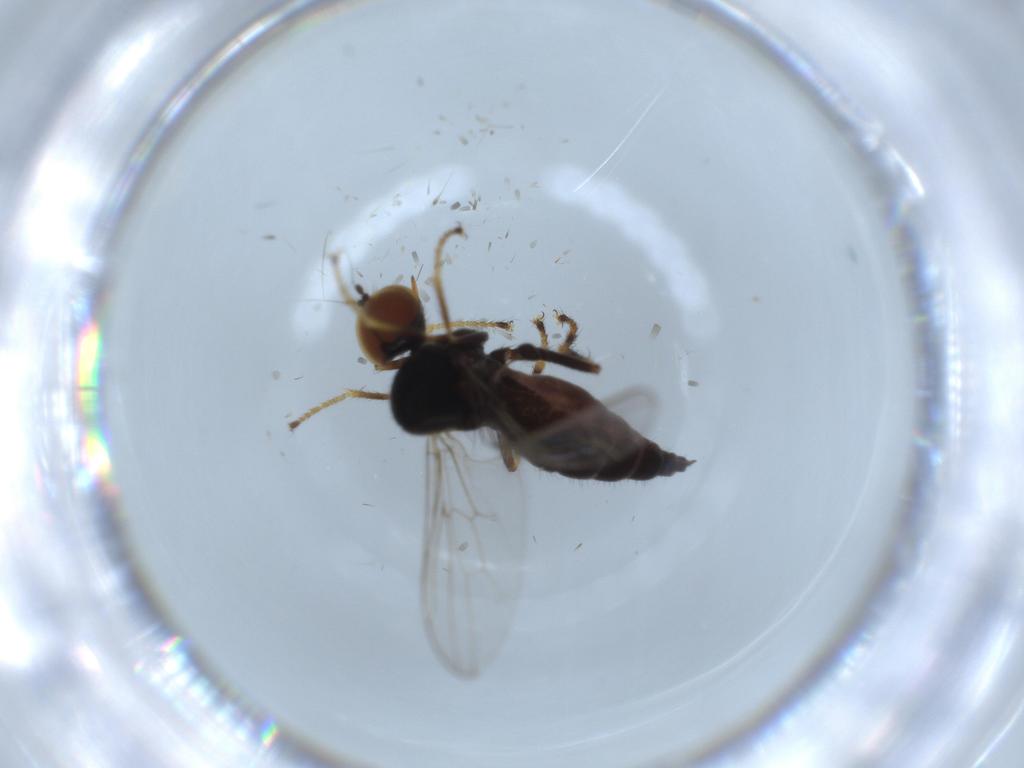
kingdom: Animalia
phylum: Arthropoda
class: Insecta
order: Diptera
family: Hybotidae
